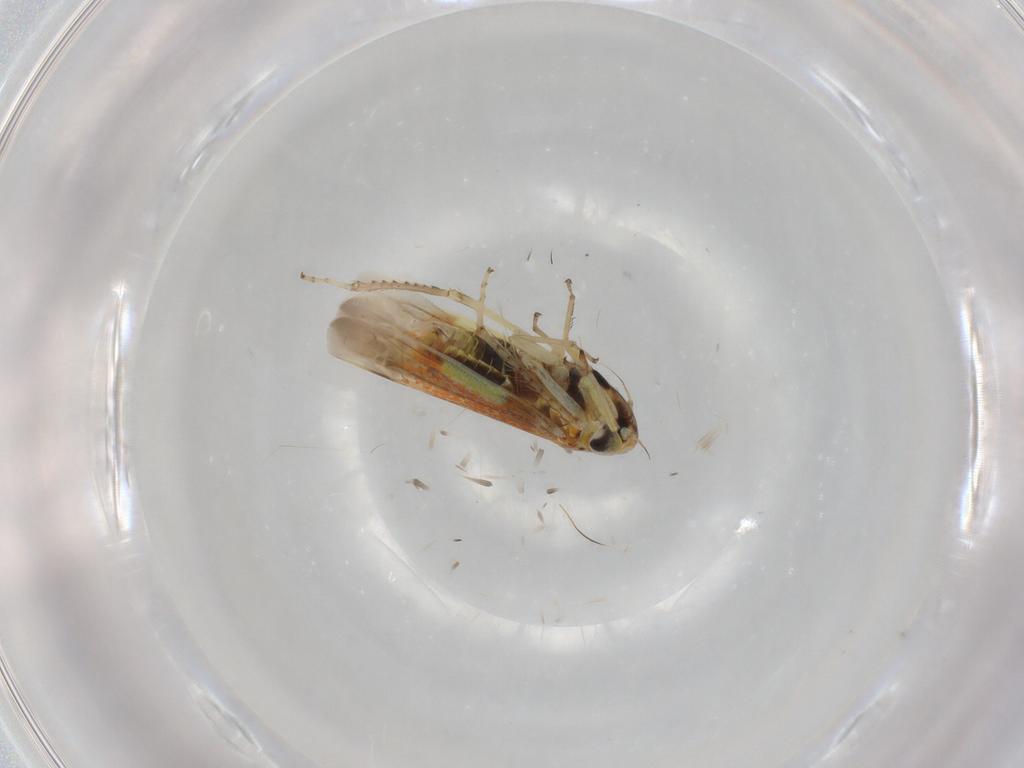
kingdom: Animalia
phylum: Arthropoda
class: Insecta
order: Hemiptera
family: Cicadellidae
